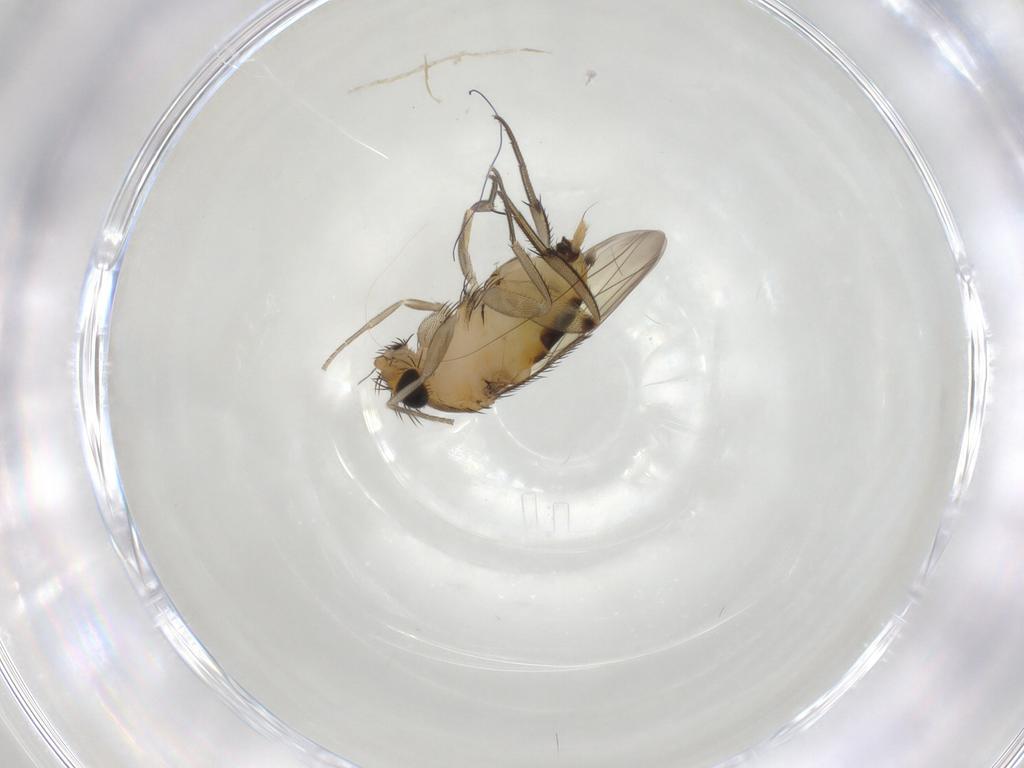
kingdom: Animalia
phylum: Arthropoda
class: Insecta
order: Diptera
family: Phoridae
